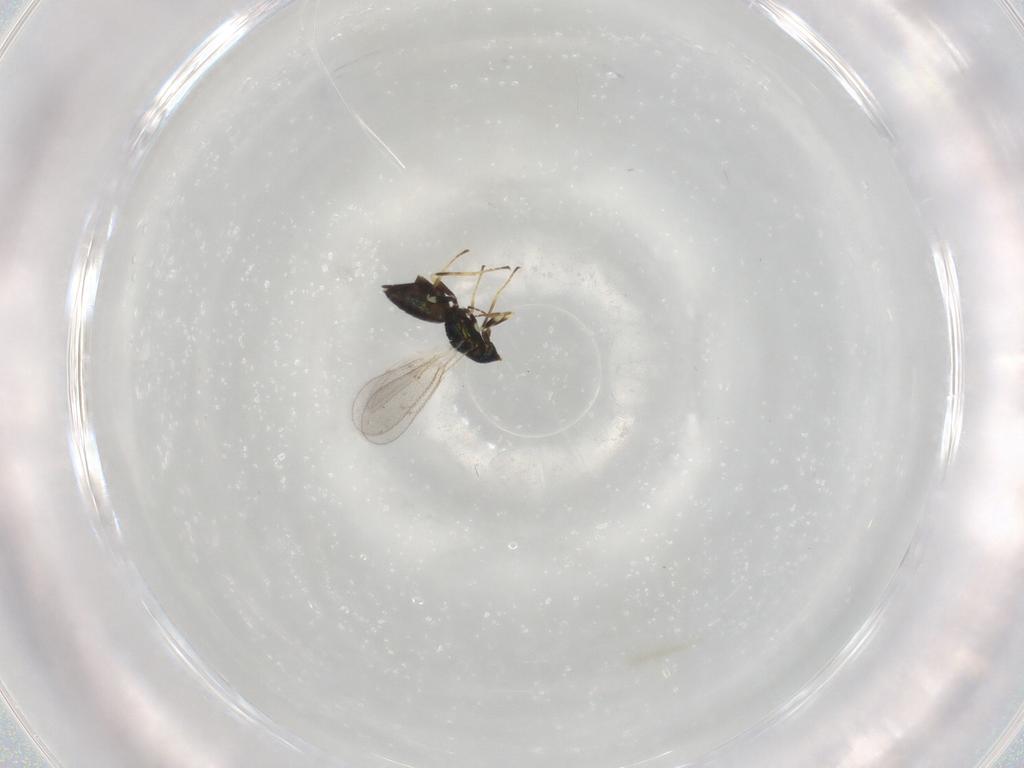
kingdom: Animalia
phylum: Arthropoda
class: Insecta
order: Hymenoptera
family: Eulophidae
